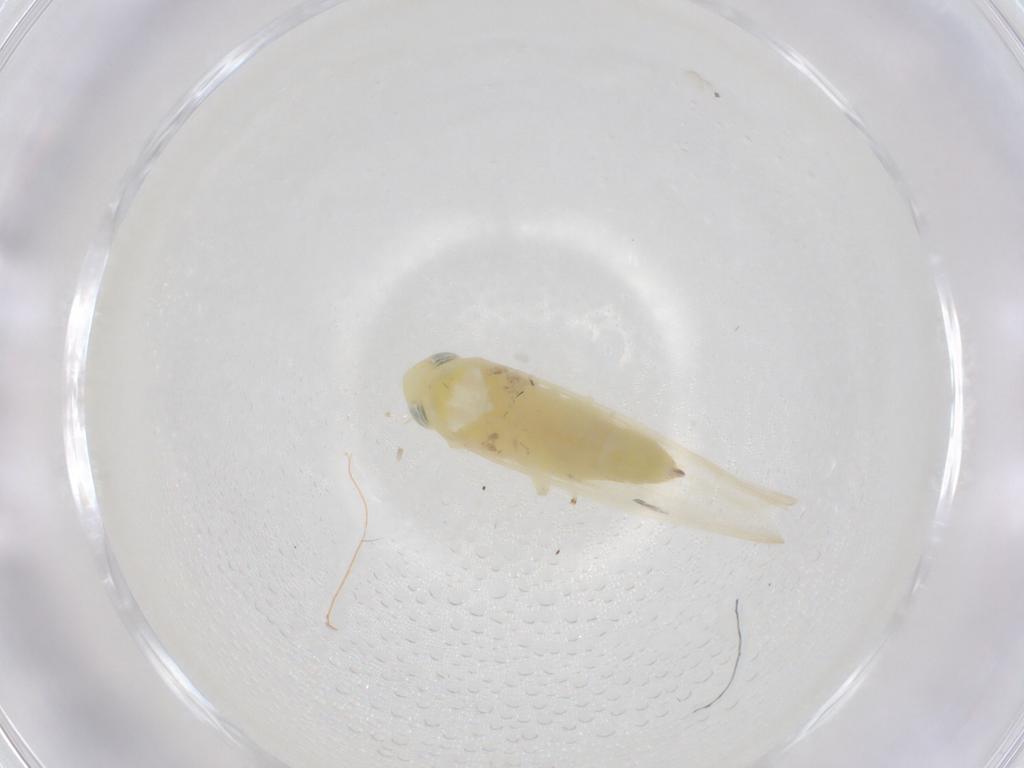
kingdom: Animalia
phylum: Arthropoda
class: Insecta
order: Hemiptera
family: Cicadellidae
